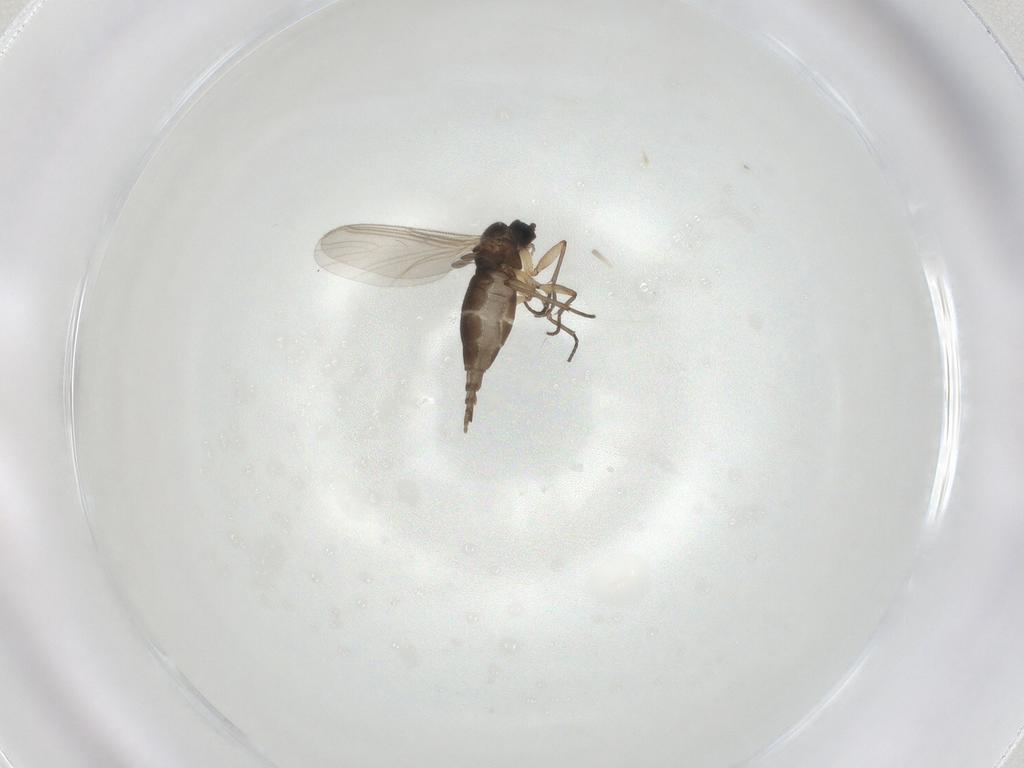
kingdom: Animalia
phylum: Arthropoda
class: Insecta
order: Diptera
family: Sciaridae
